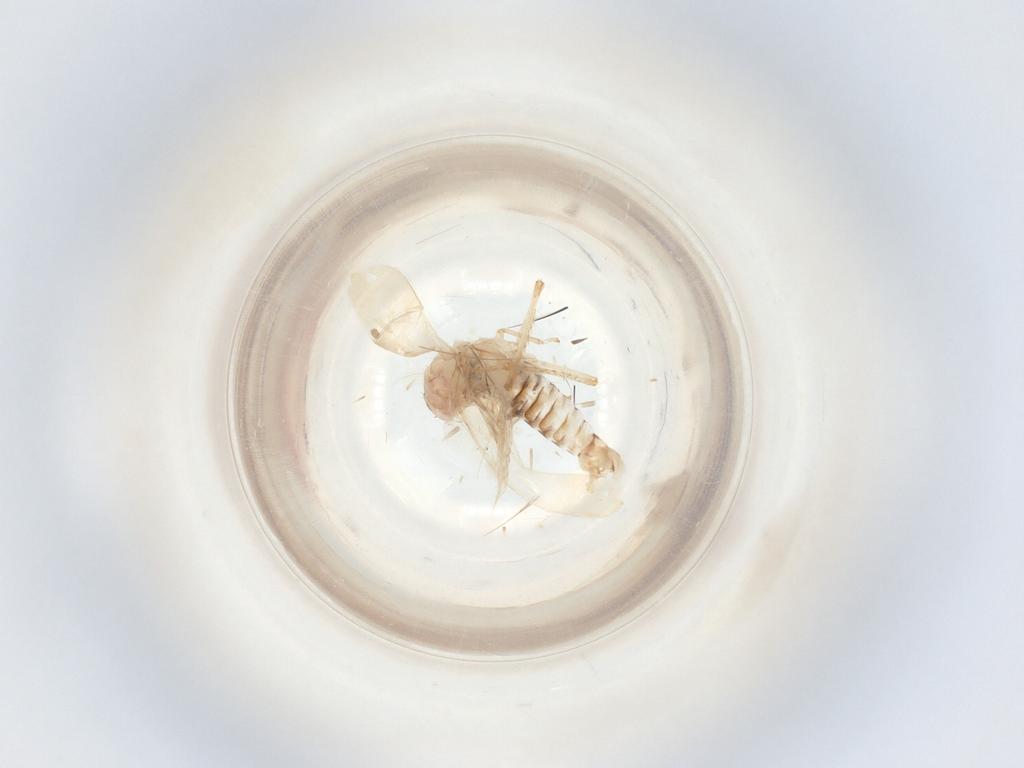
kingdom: Animalia
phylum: Arthropoda
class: Insecta
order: Hemiptera
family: Cicadellidae
